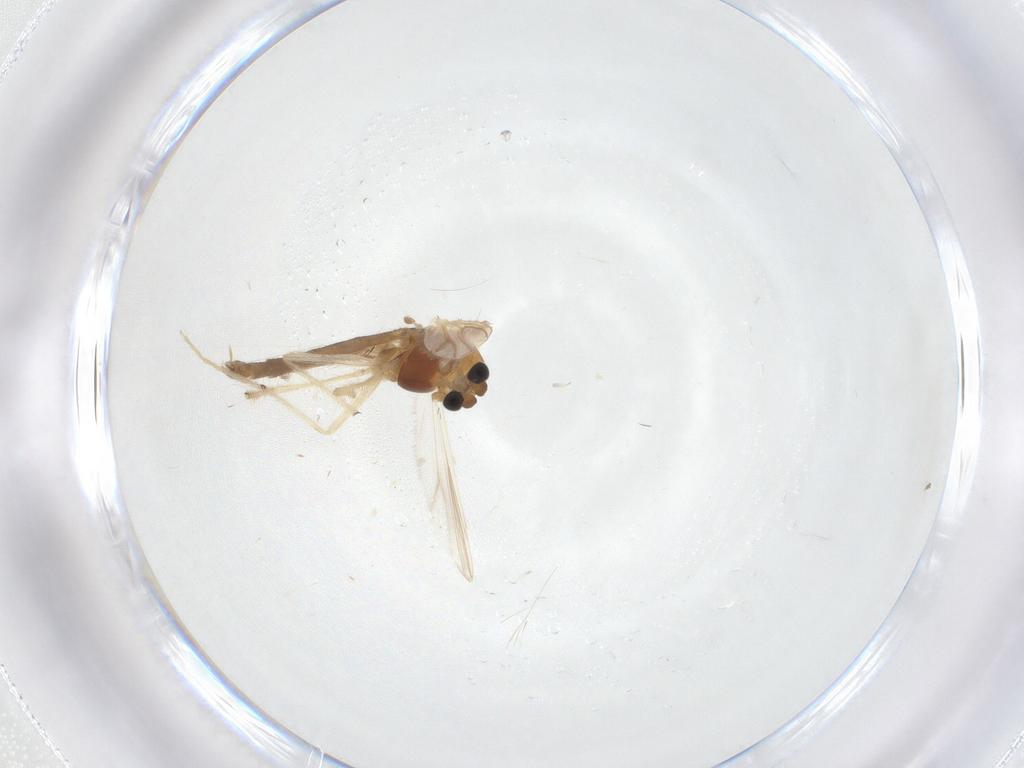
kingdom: Animalia
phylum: Arthropoda
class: Insecta
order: Diptera
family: Chironomidae
